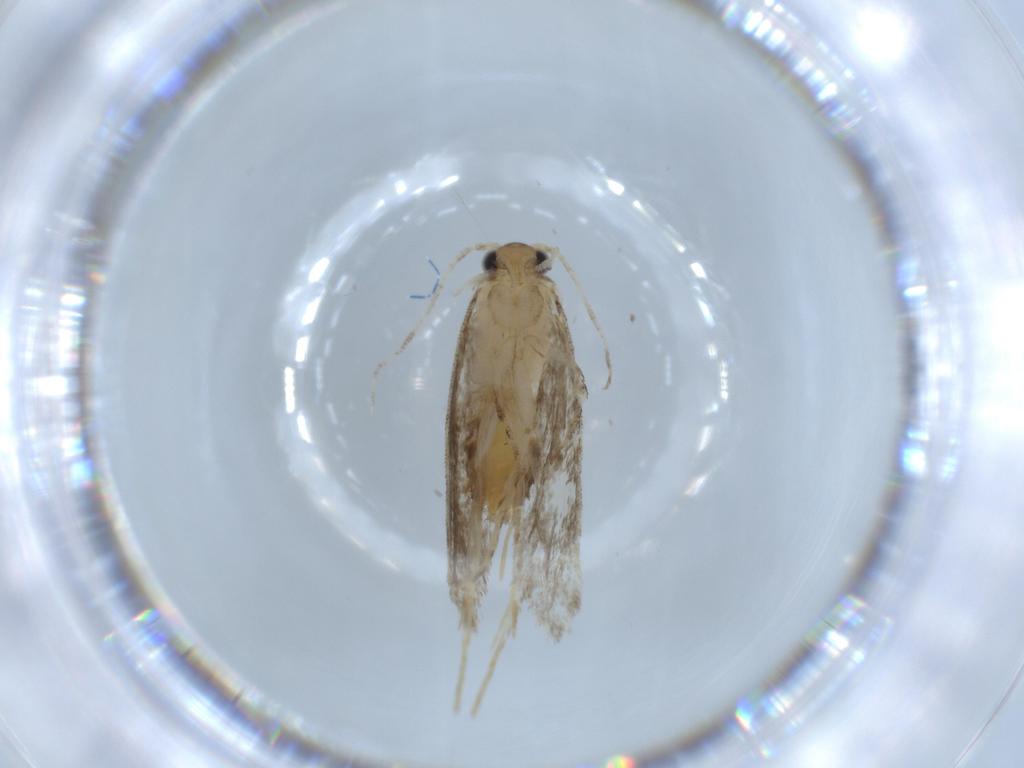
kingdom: Animalia
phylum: Arthropoda
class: Insecta
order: Lepidoptera
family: Tineidae
